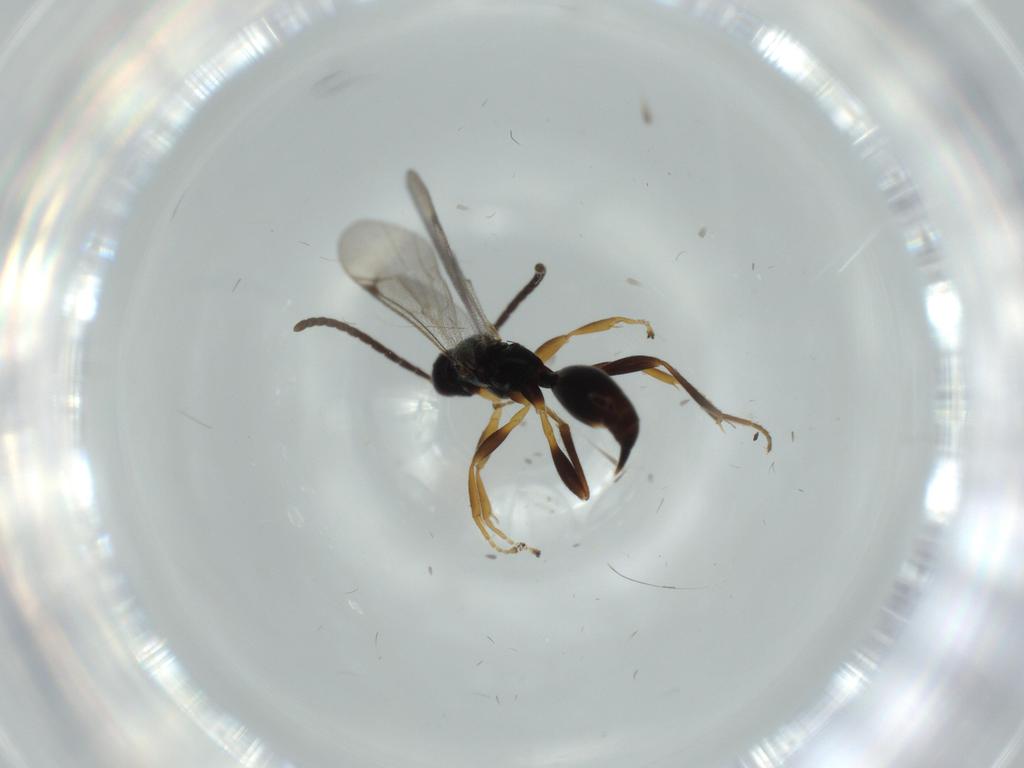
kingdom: Animalia
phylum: Arthropoda
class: Insecta
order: Hymenoptera
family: Proctotrupidae
